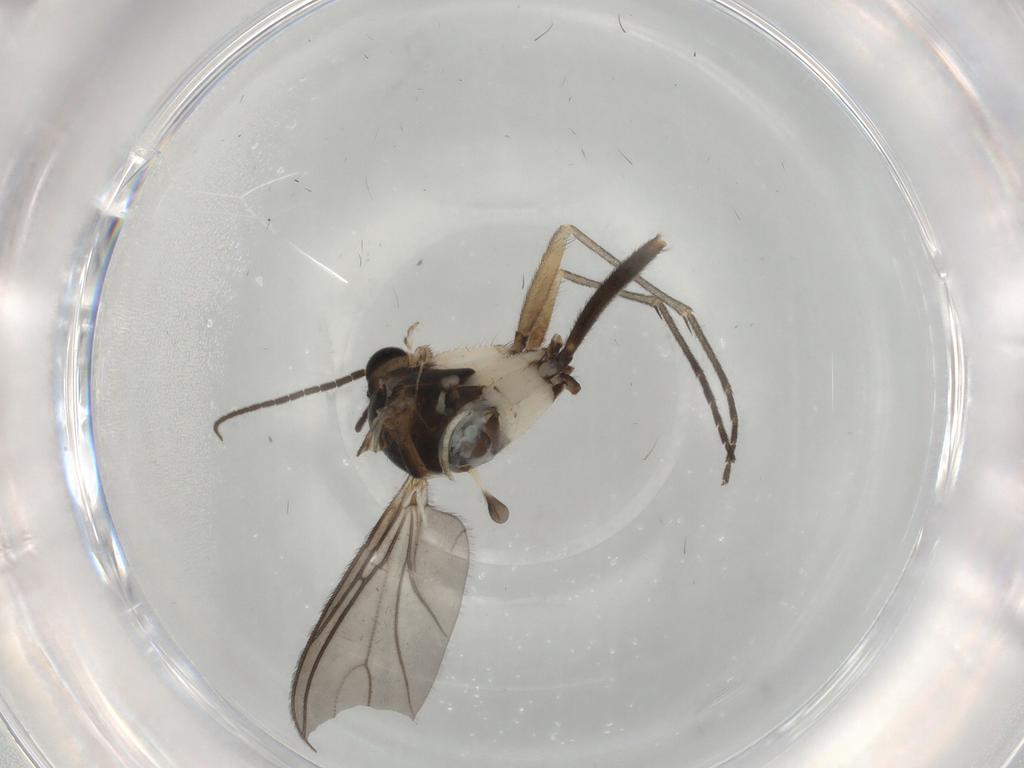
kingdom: Animalia
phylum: Arthropoda
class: Insecta
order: Diptera
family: Sciaridae
